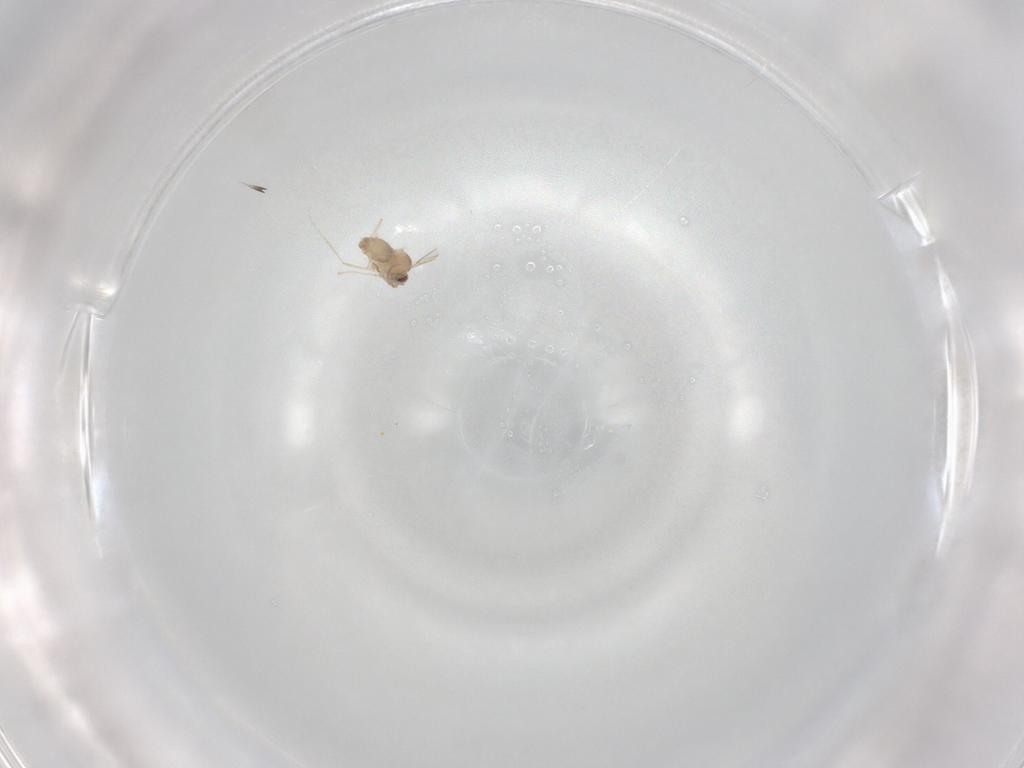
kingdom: Animalia
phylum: Arthropoda
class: Insecta
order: Diptera
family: Cecidomyiidae
